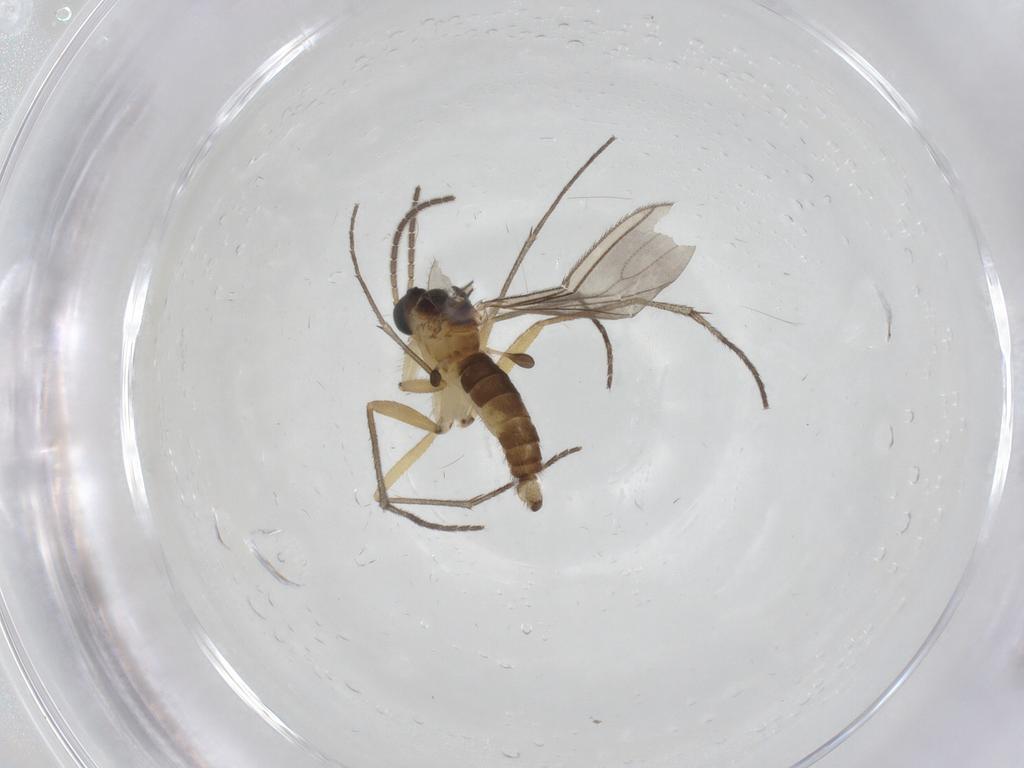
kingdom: Animalia
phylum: Arthropoda
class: Insecta
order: Diptera
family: Sciaridae
